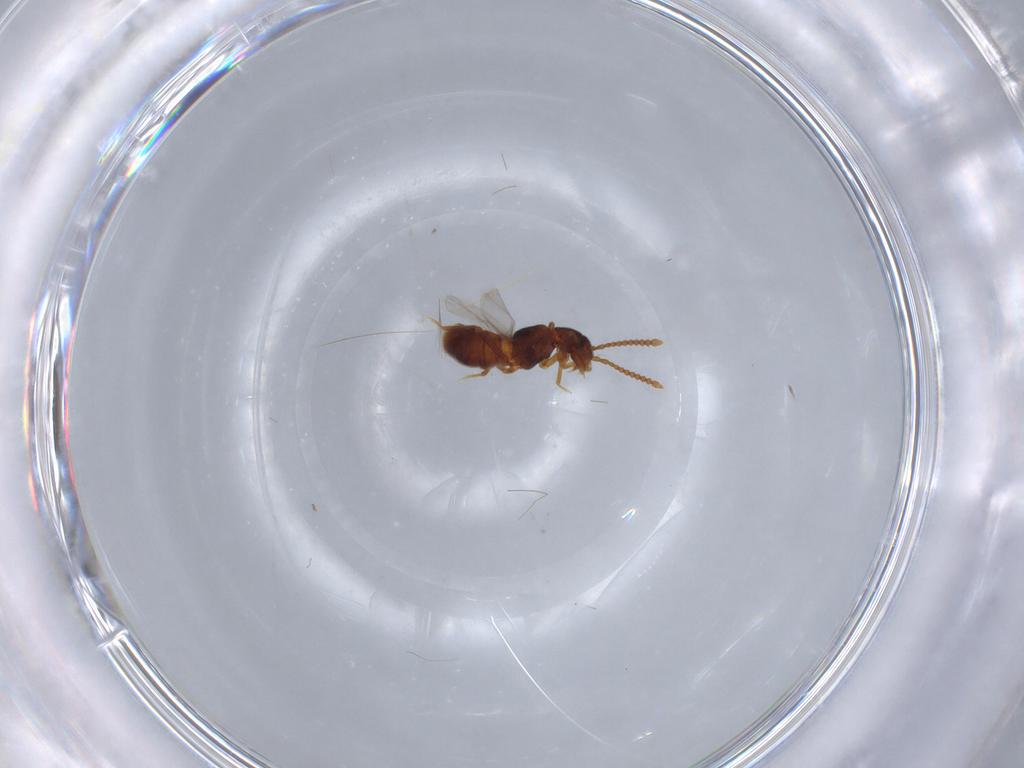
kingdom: Animalia
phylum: Arthropoda
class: Insecta
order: Coleoptera
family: Staphylinidae
